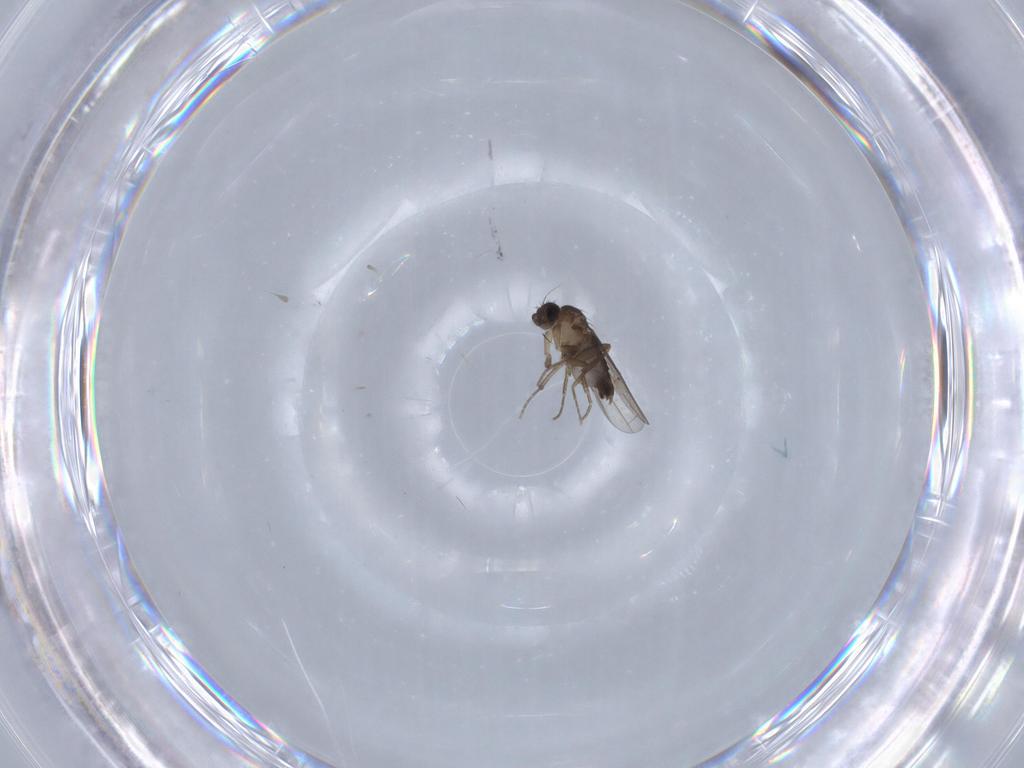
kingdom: Animalia
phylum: Arthropoda
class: Insecta
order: Diptera
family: Phoridae
